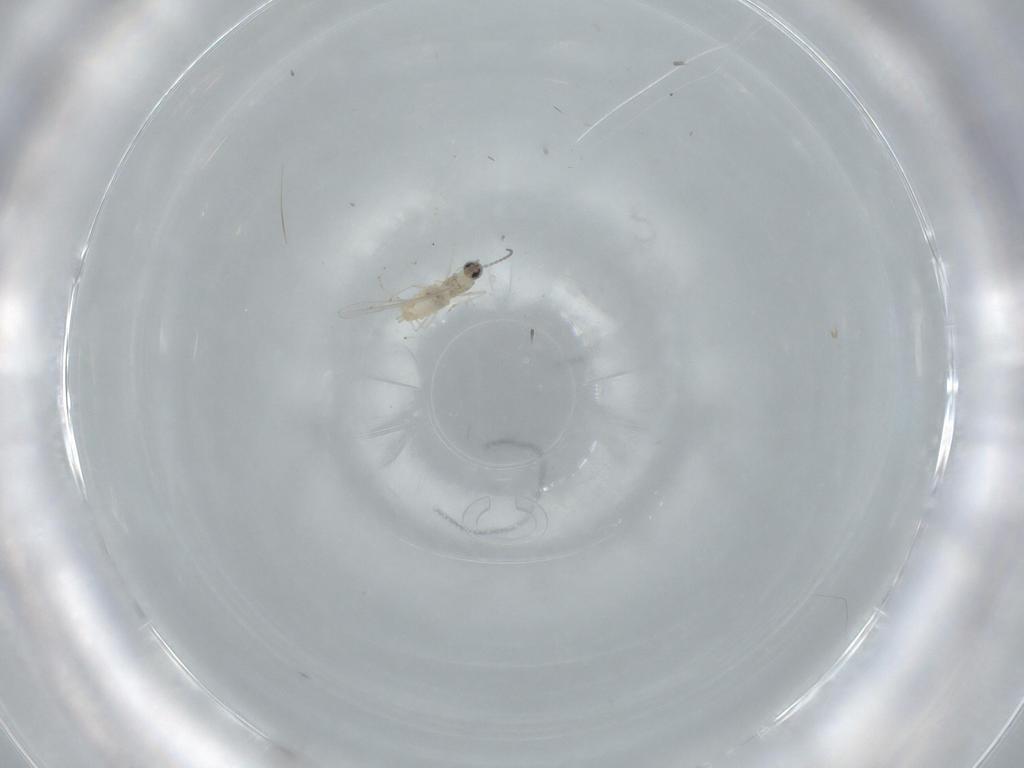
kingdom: Animalia
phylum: Arthropoda
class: Insecta
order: Diptera
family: Cecidomyiidae
